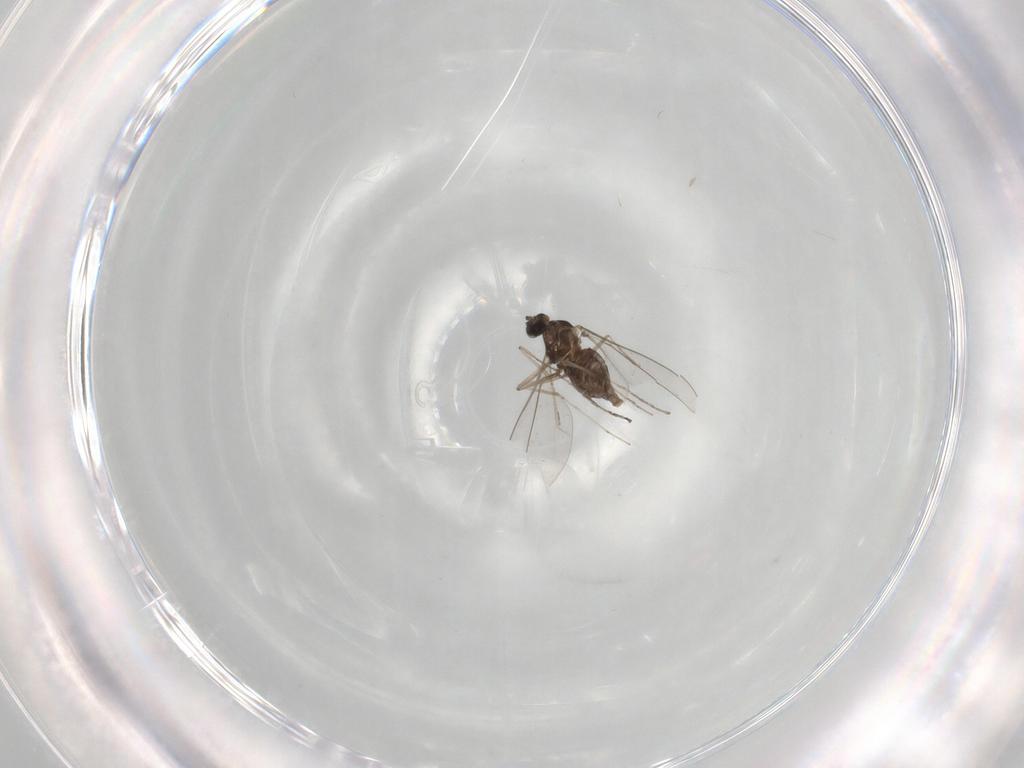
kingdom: Animalia
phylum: Arthropoda
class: Insecta
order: Diptera
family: Cecidomyiidae
